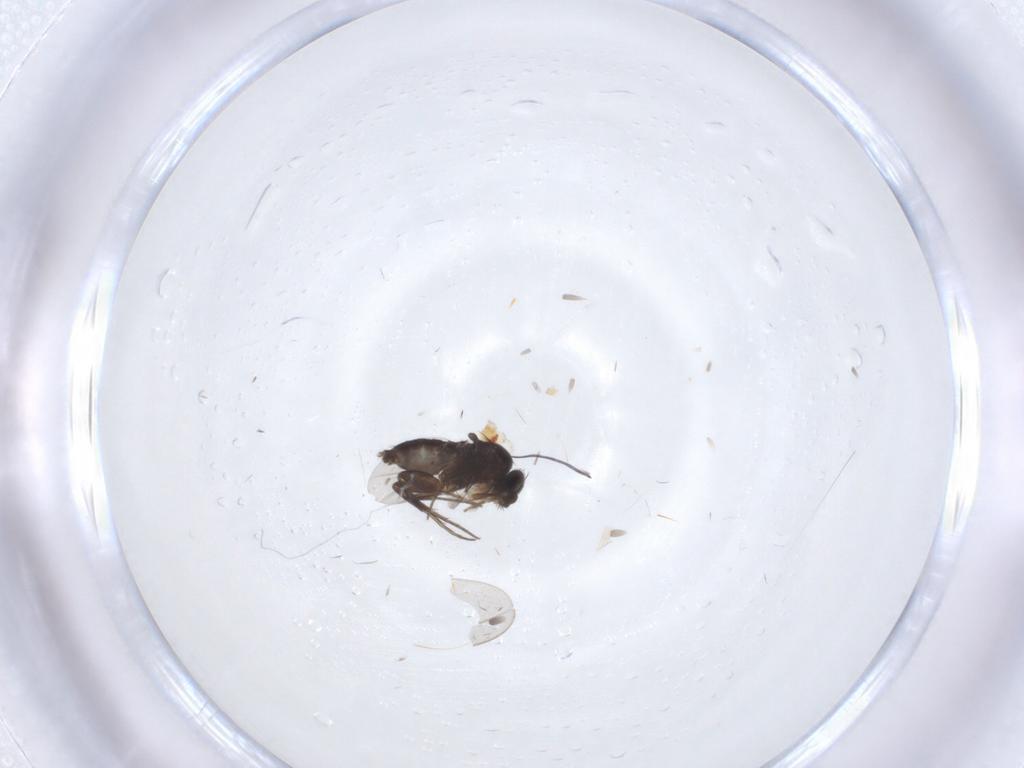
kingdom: Animalia
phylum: Arthropoda
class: Insecta
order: Diptera
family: Phoridae
